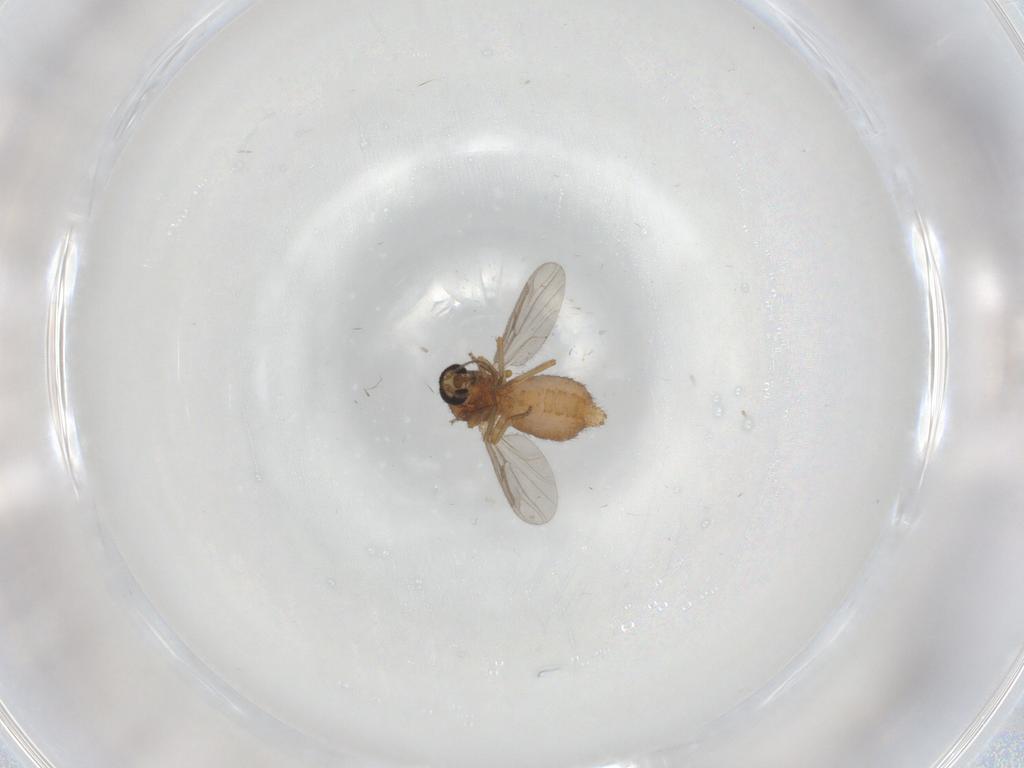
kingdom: Animalia
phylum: Arthropoda
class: Insecta
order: Diptera
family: Ceratopogonidae
